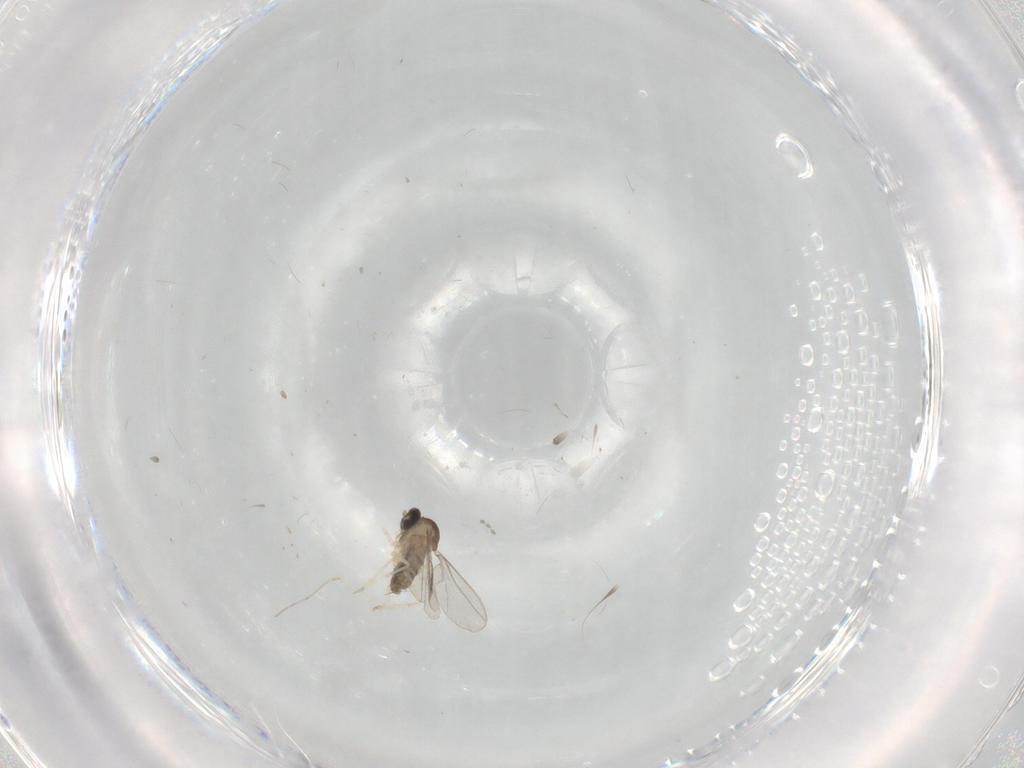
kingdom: Animalia
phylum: Arthropoda
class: Insecta
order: Diptera
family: Cecidomyiidae
